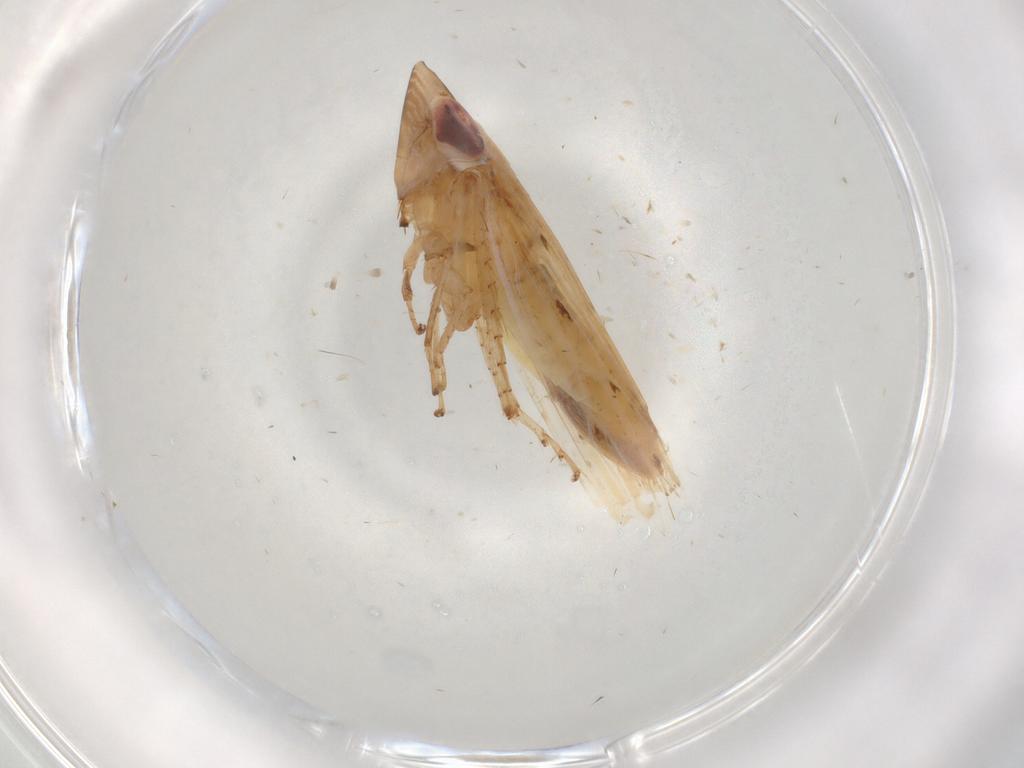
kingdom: Animalia
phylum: Arthropoda
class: Insecta
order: Hemiptera
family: Cicadellidae
